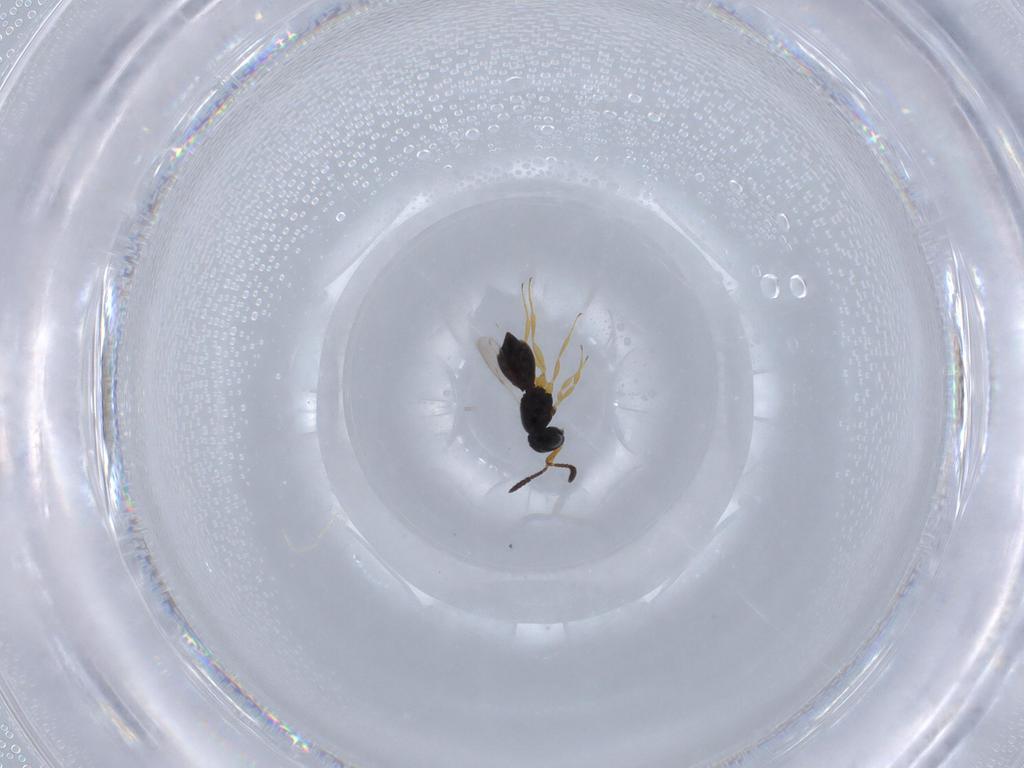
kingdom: Animalia
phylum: Arthropoda
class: Insecta
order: Hymenoptera
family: Scelionidae
